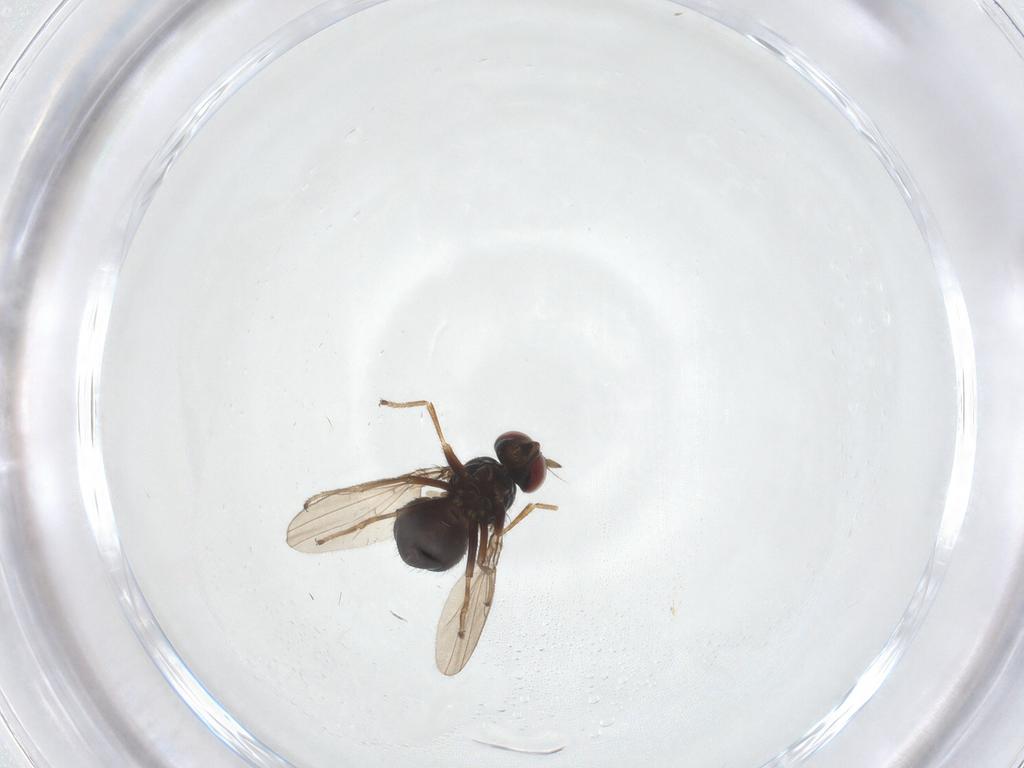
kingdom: Animalia
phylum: Arthropoda
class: Insecta
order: Diptera
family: Ephydridae
